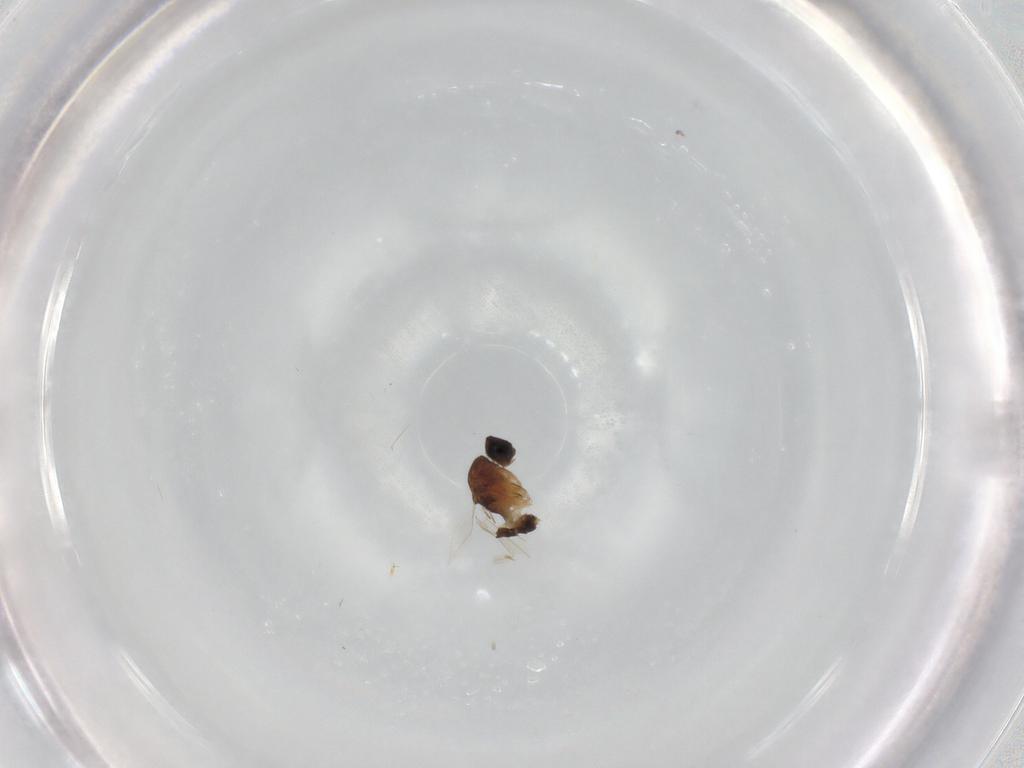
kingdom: Animalia
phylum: Arthropoda
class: Insecta
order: Diptera
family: Phoridae
